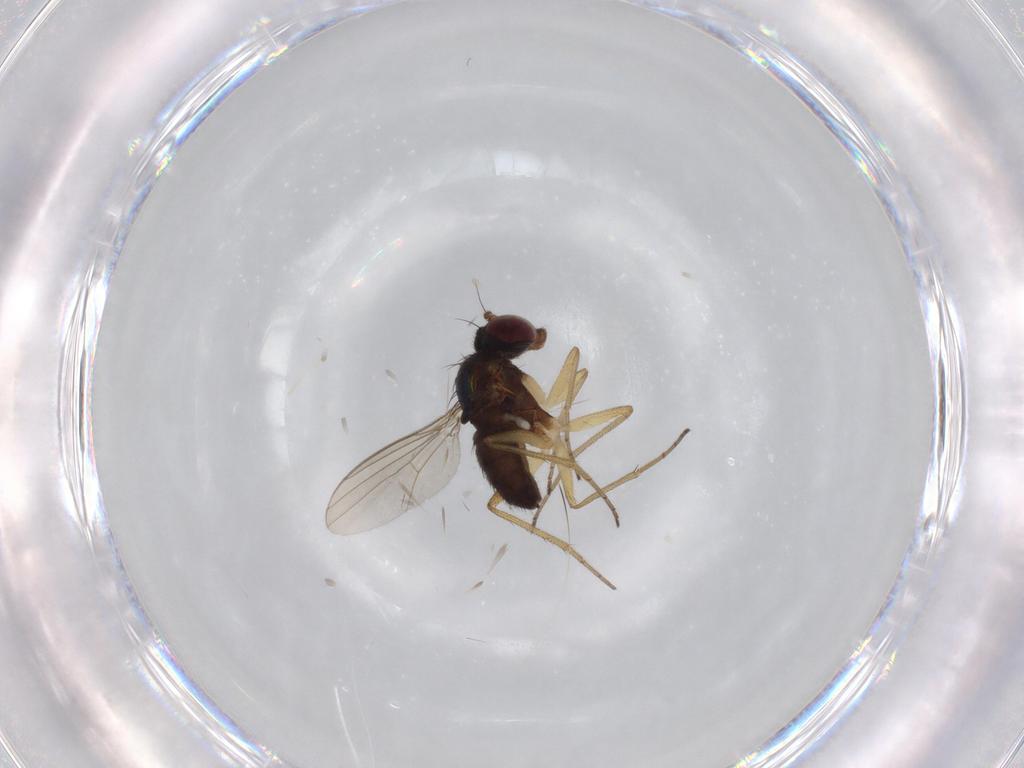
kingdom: Animalia
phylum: Arthropoda
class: Insecta
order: Diptera
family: Dolichopodidae
